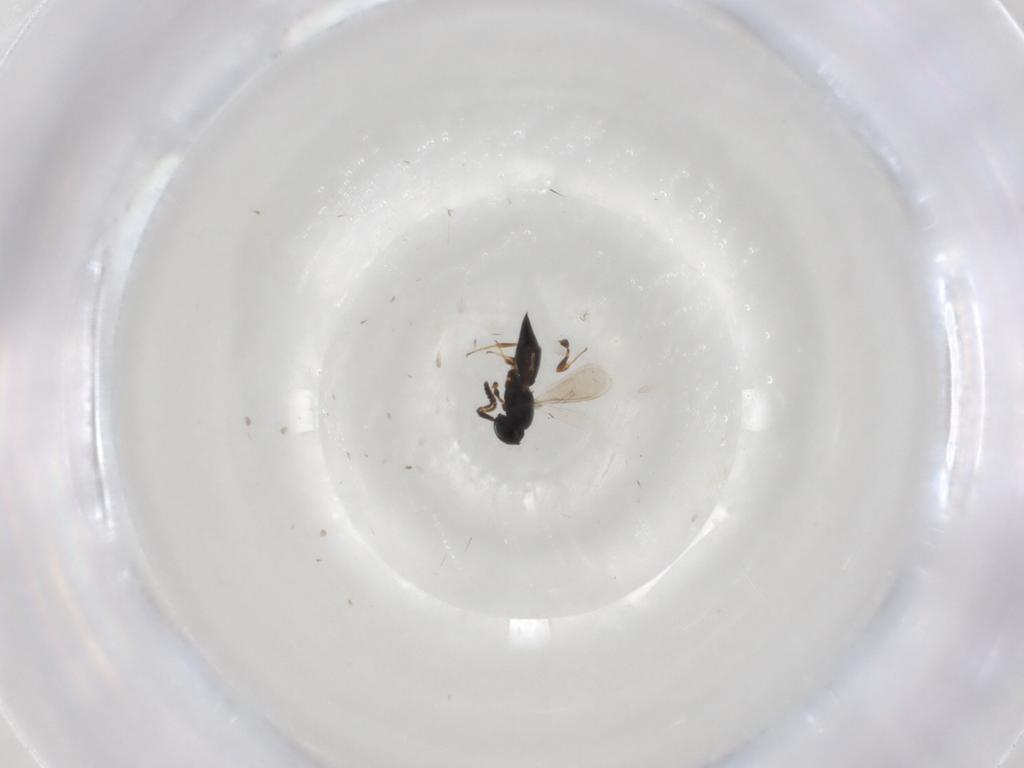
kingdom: Animalia
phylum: Arthropoda
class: Insecta
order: Hymenoptera
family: Scelionidae
